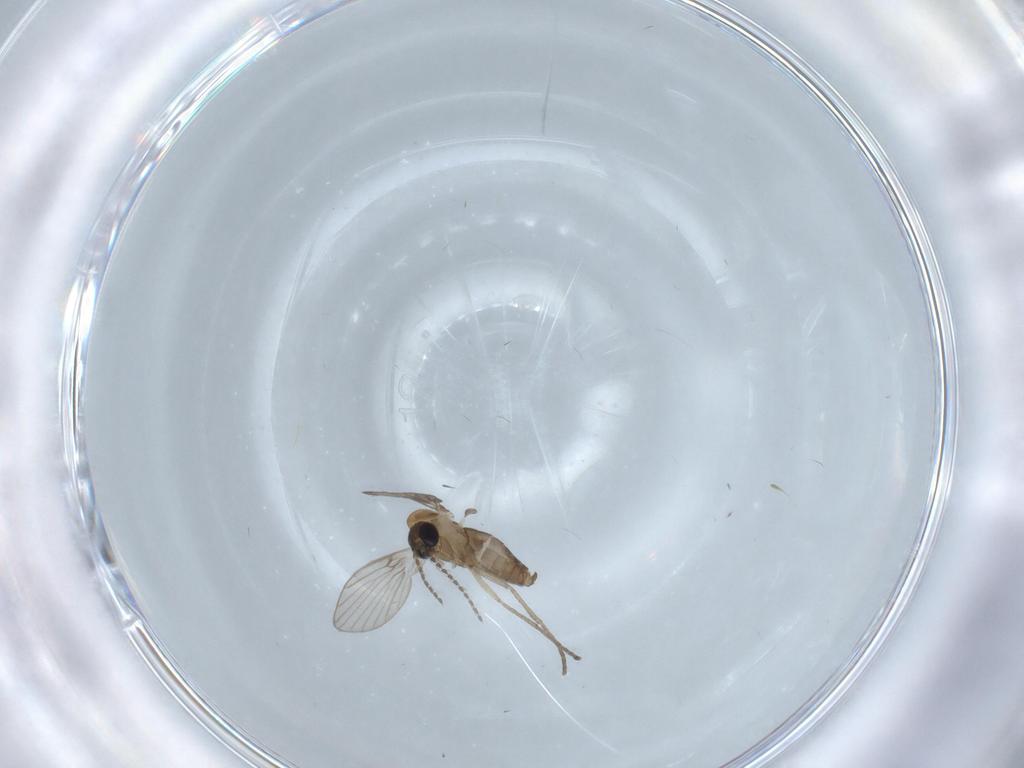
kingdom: Animalia
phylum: Arthropoda
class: Insecta
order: Diptera
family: Psychodidae
